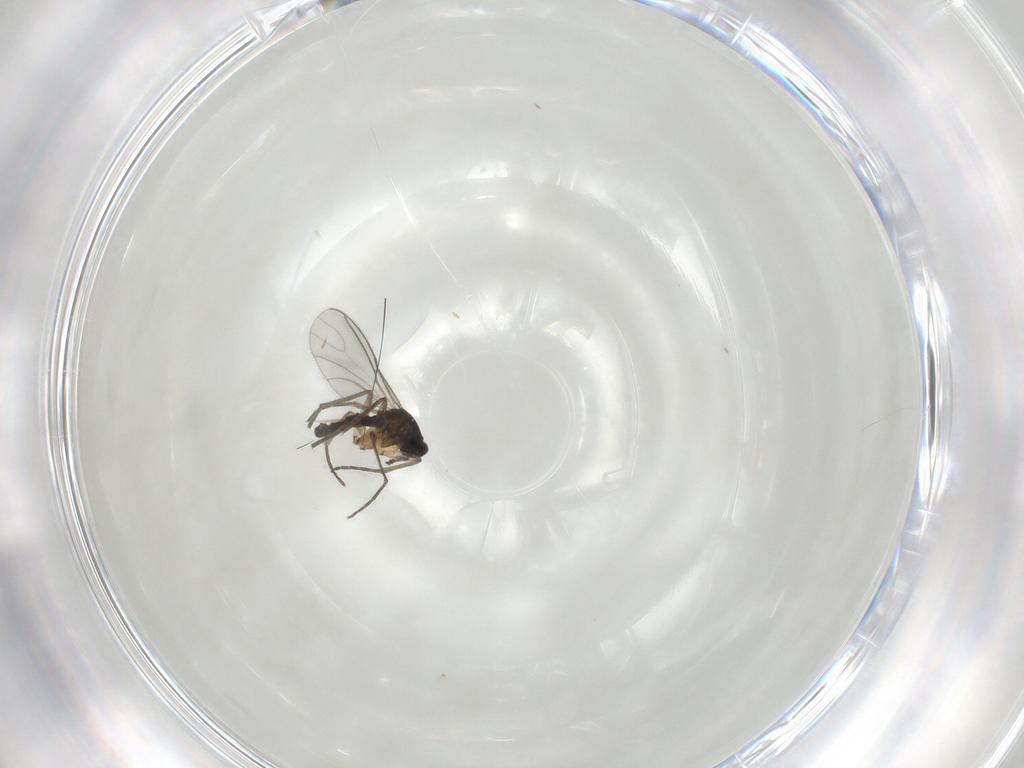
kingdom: Animalia
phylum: Arthropoda
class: Insecta
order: Diptera
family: Sciaridae
